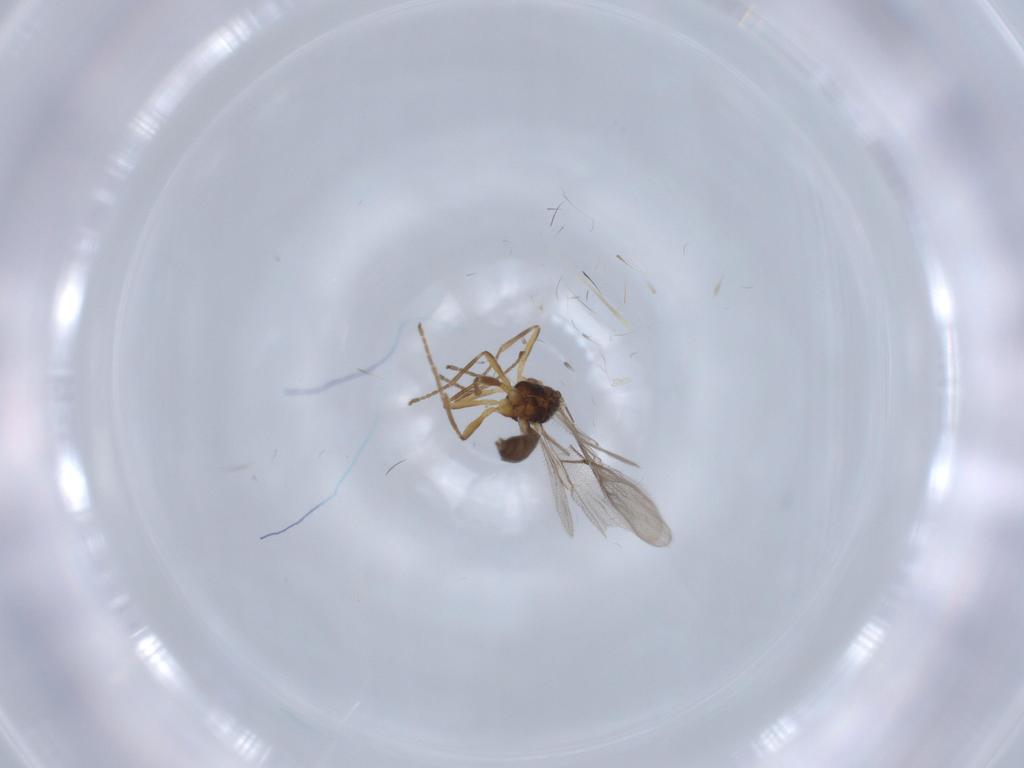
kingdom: Animalia
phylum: Arthropoda
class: Insecta
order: Hymenoptera
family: Braconidae
